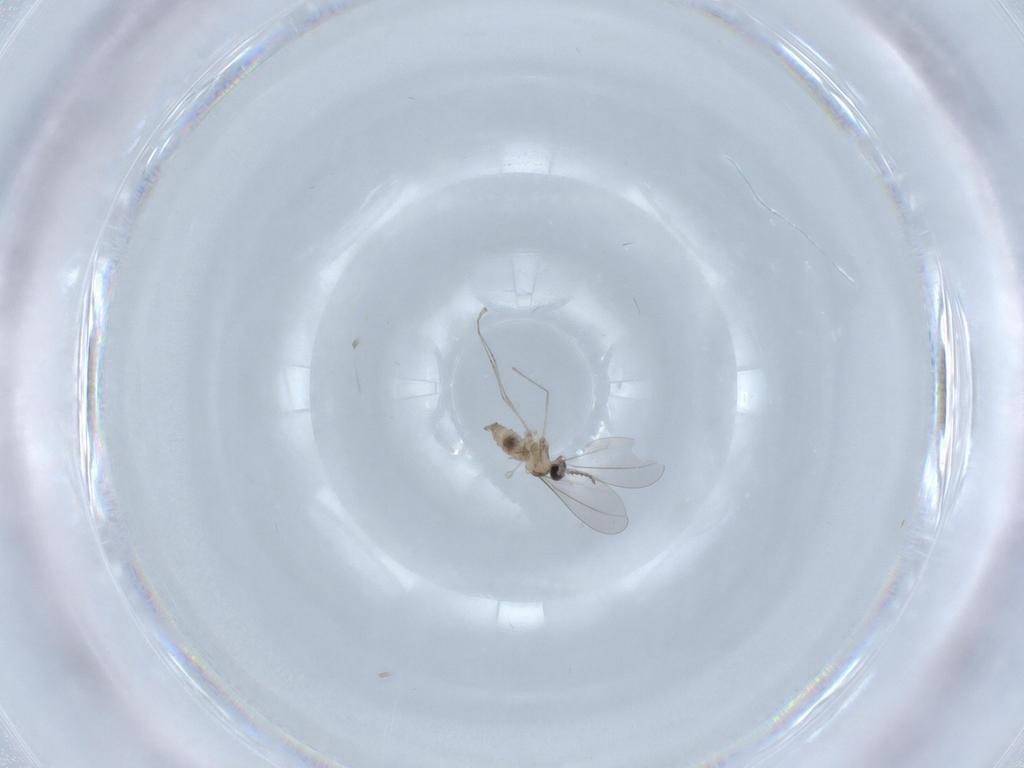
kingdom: Animalia
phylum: Arthropoda
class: Insecta
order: Diptera
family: Cecidomyiidae
